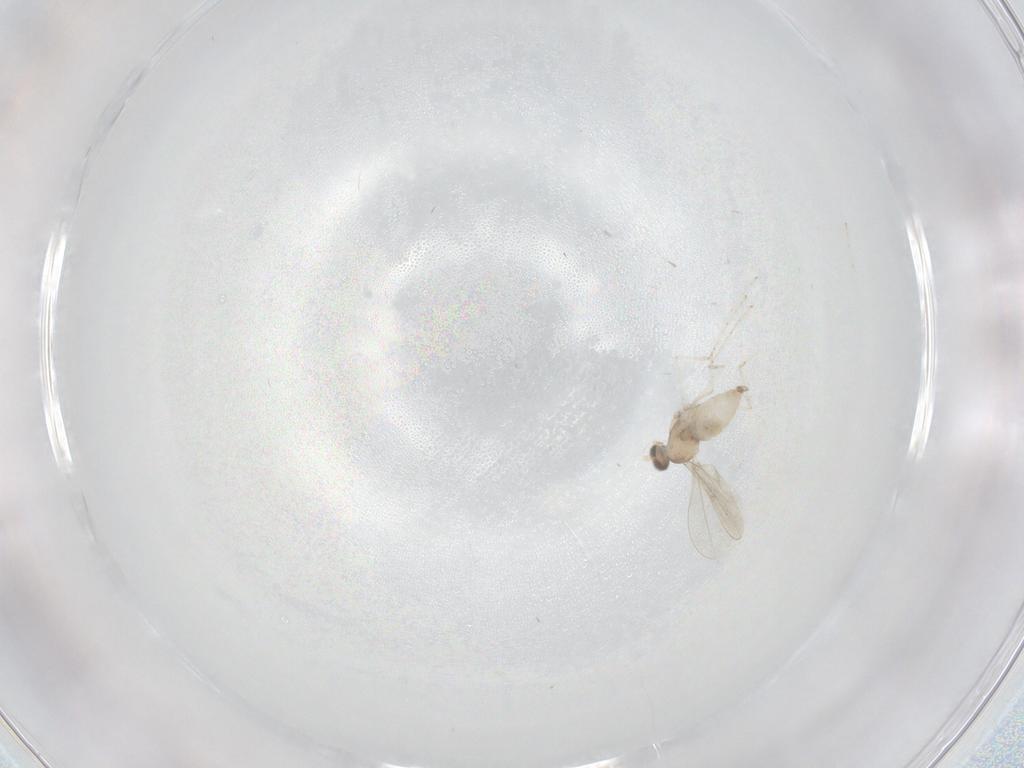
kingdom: Animalia
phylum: Arthropoda
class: Insecta
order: Diptera
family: Cecidomyiidae
